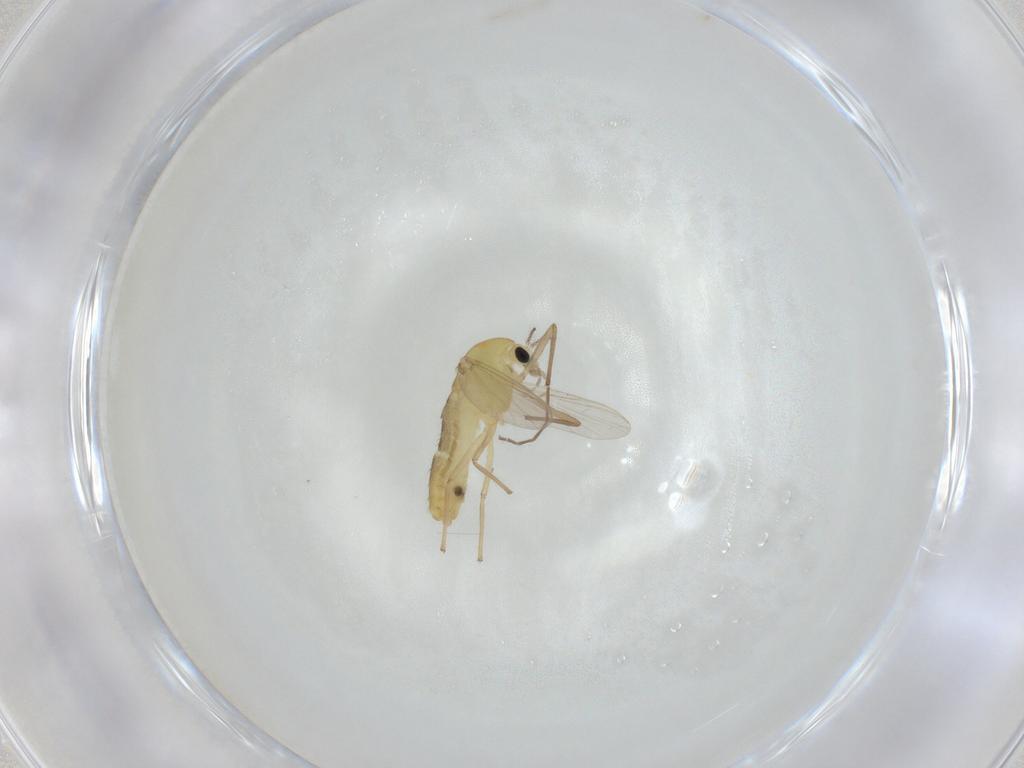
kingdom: Animalia
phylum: Arthropoda
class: Insecta
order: Diptera
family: Chironomidae
